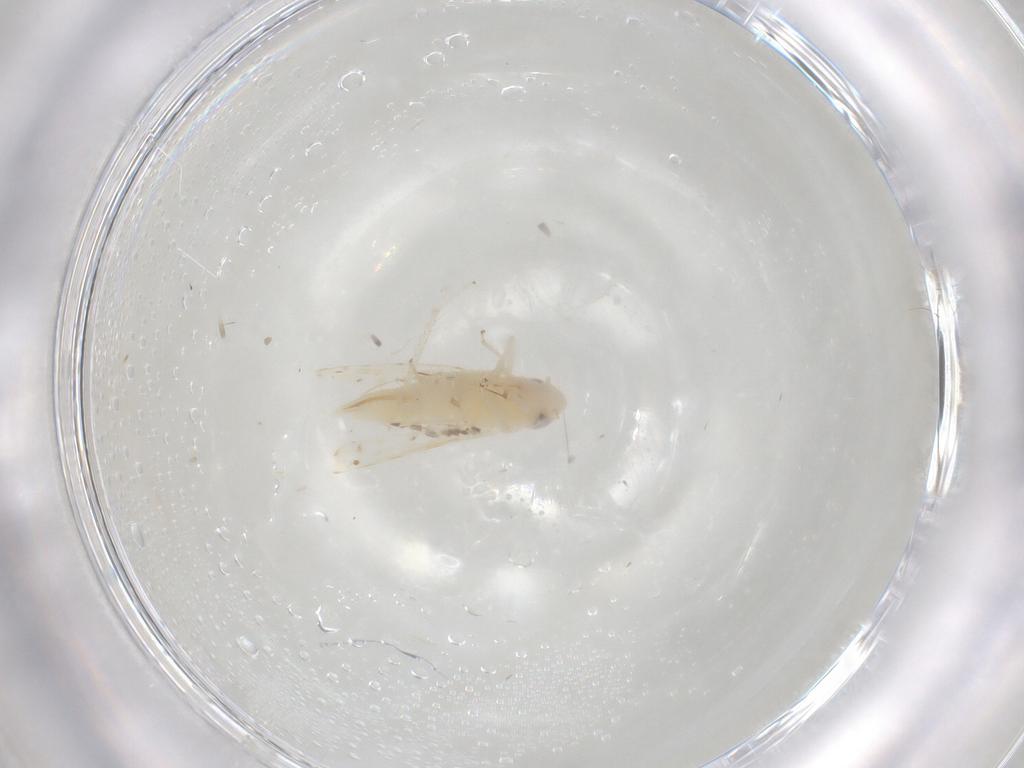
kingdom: Animalia
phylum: Arthropoda
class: Insecta
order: Hemiptera
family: Cicadellidae
